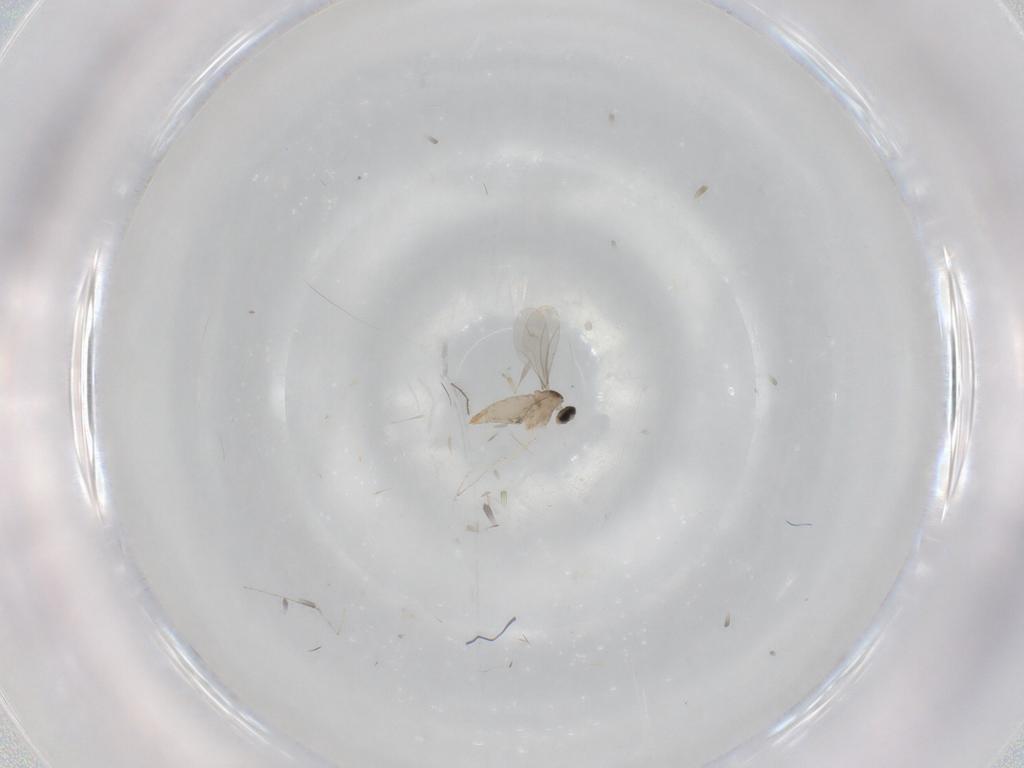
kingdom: Animalia
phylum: Arthropoda
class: Insecta
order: Diptera
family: Cecidomyiidae
